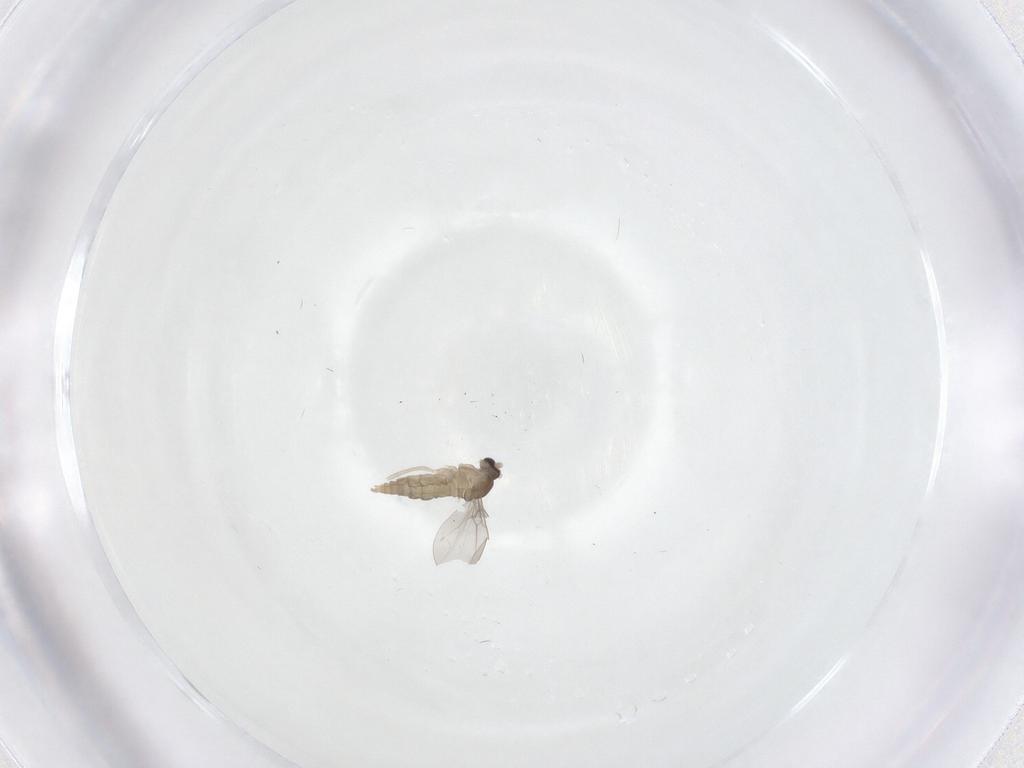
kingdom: Animalia
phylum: Arthropoda
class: Insecta
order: Diptera
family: Cecidomyiidae
